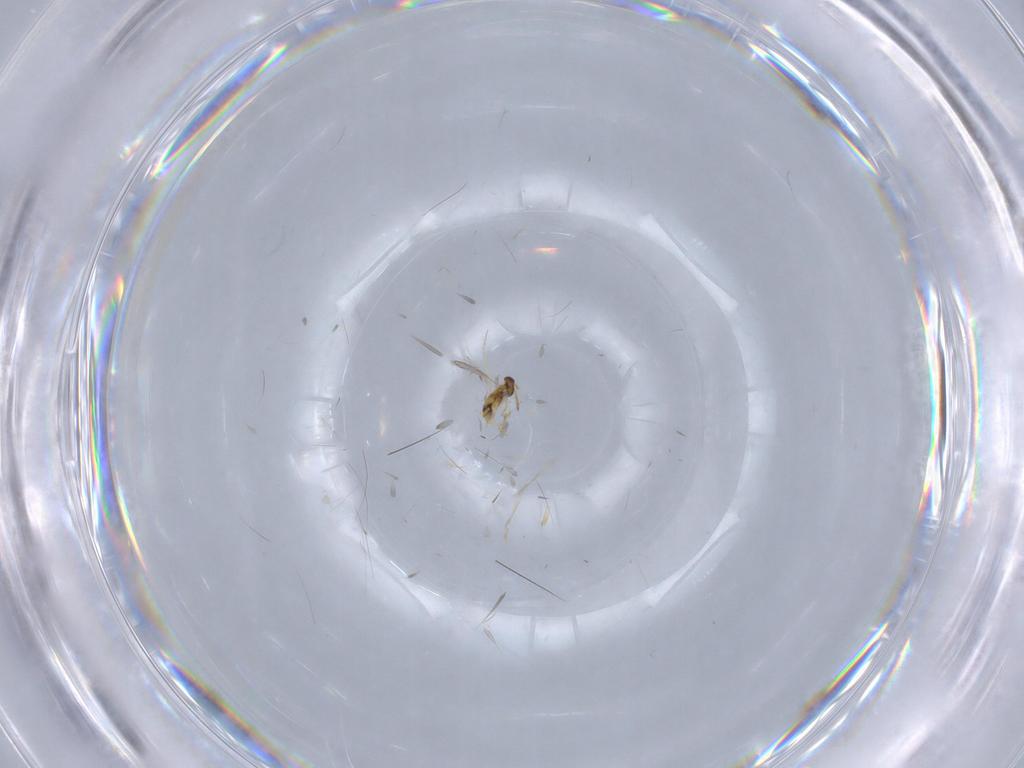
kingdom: Animalia
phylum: Arthropoda
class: Insecta
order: Hymenoptera
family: Aphelinidae
